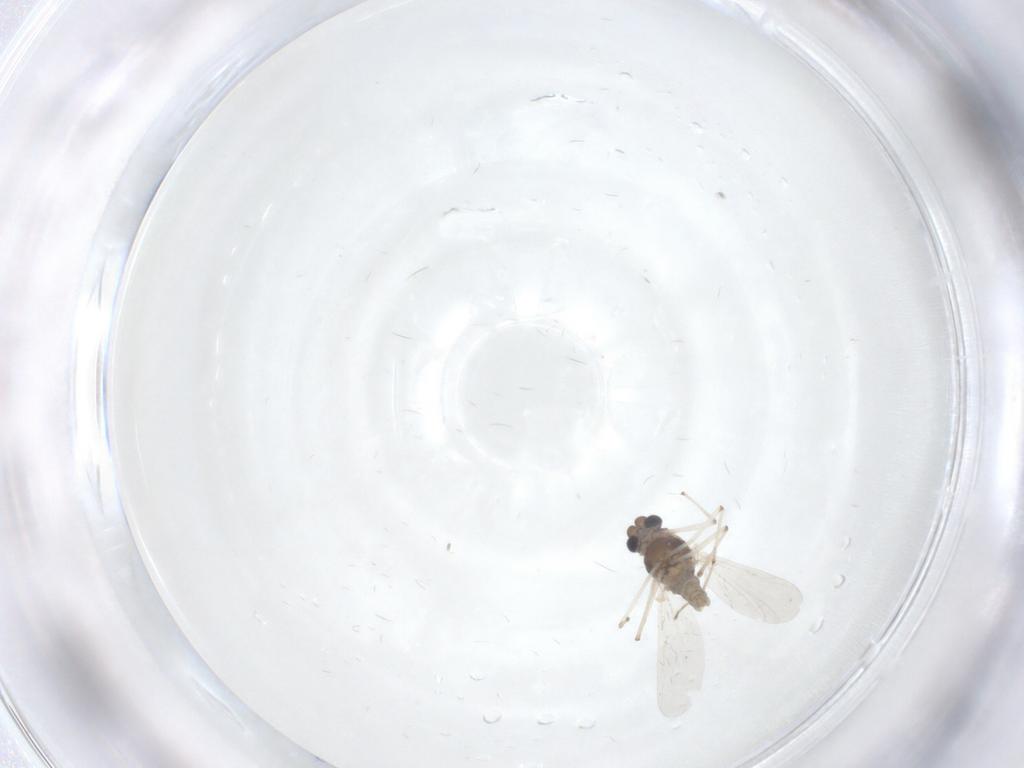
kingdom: Animalia
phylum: Arthropoda
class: Insecta
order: Diptera
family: Chironomidae
